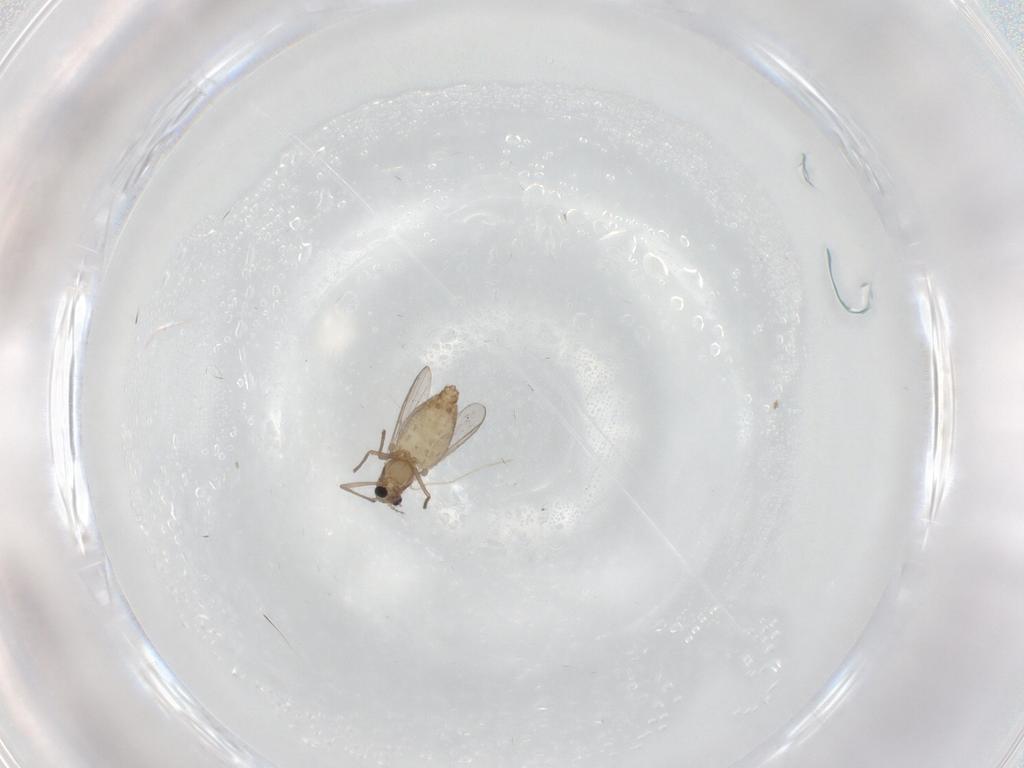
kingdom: Animalia
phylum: Arthropoda
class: Insecta
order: Diptera
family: Chironomidae
